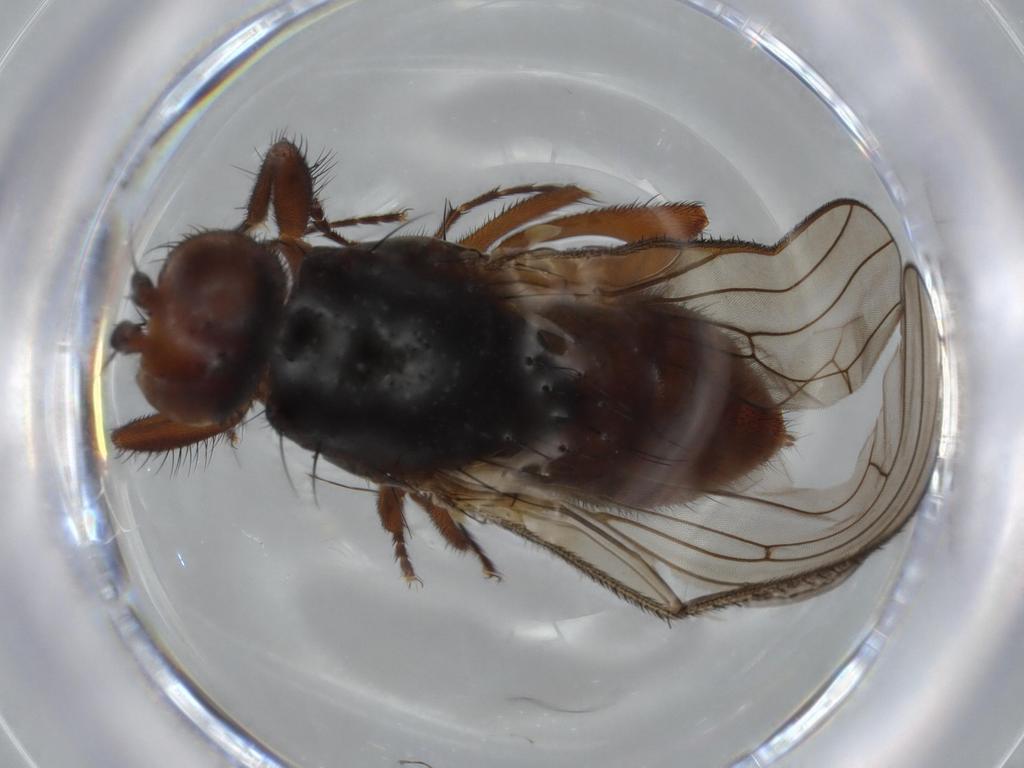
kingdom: Animalia
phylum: Arthropoda
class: Insecta
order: Diptera
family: Heleomyzidae
